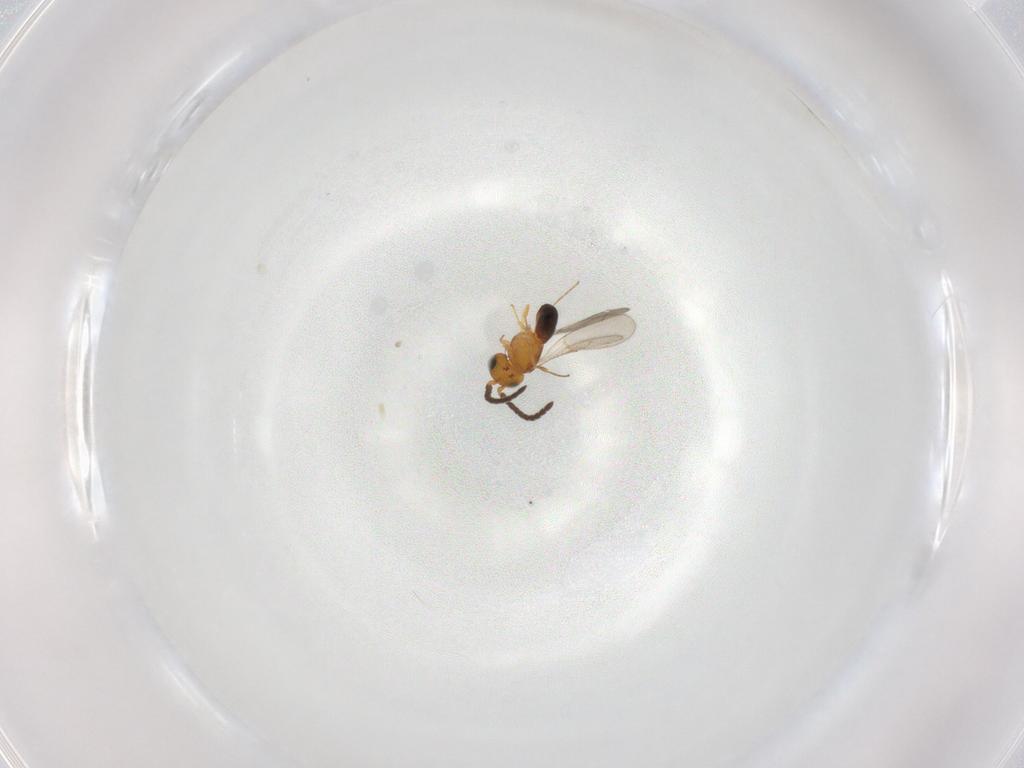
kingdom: Animalia
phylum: Arthropoda
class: Insecta
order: Hymenoptera
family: Scelionidae
